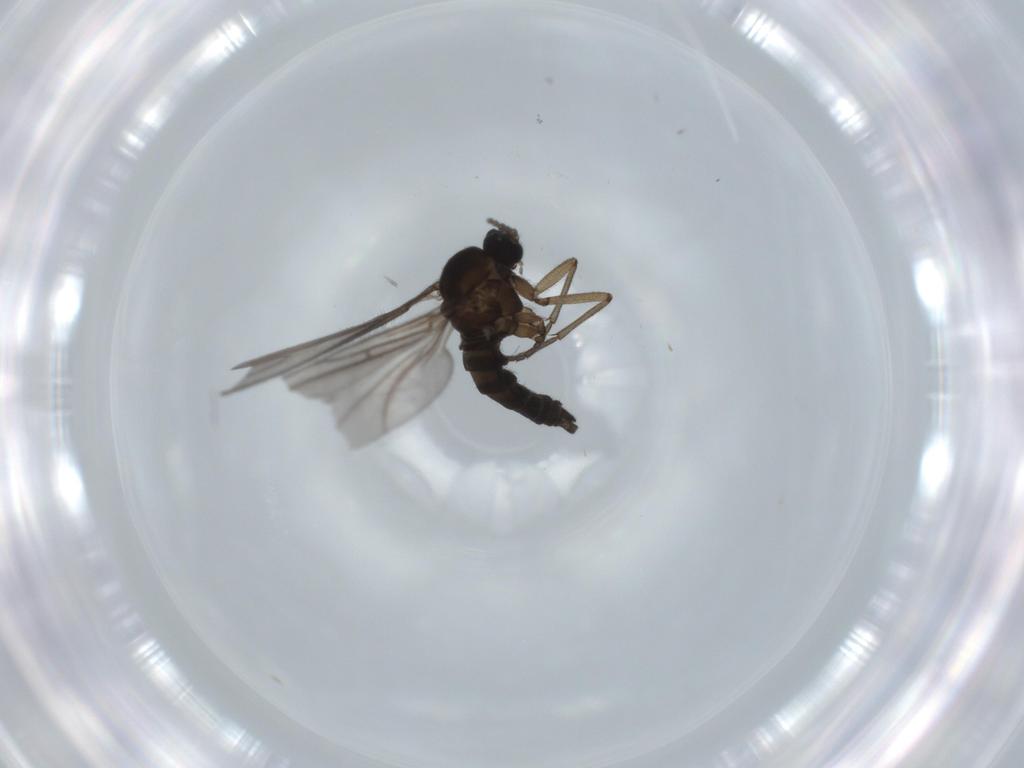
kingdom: Animalia
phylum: Arthropoda
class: Insecta
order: Diptera
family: Sciaridae
